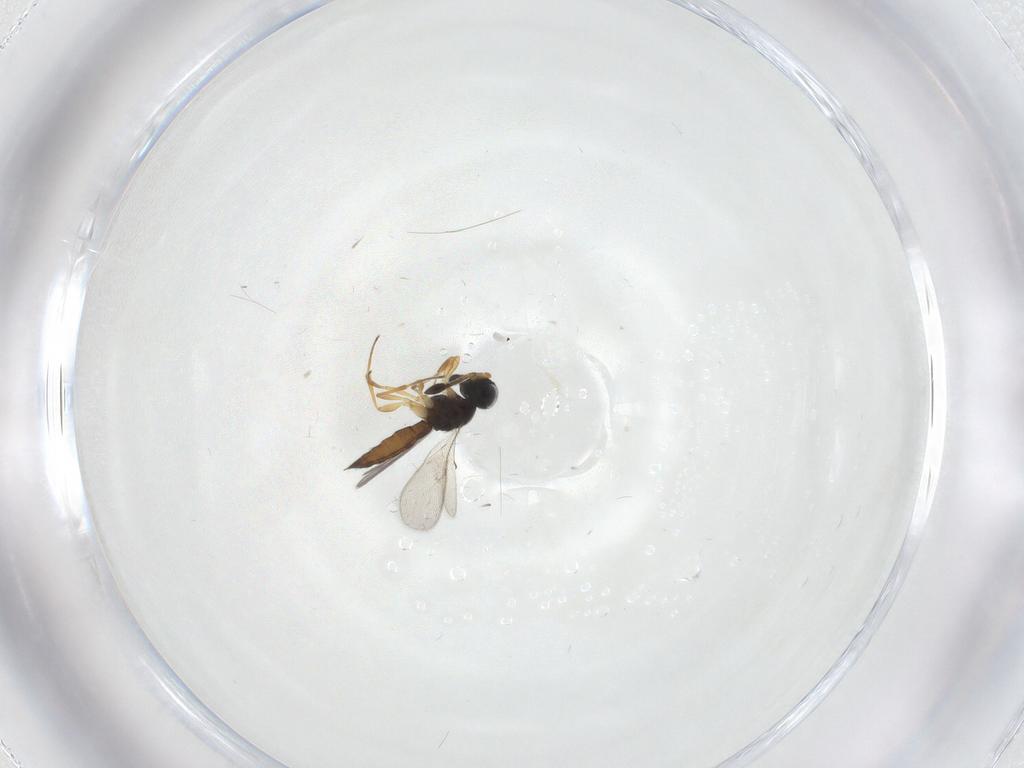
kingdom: Animalia
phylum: Arthropoda
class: Insecta
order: Hymenoptera
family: Scelionidae
